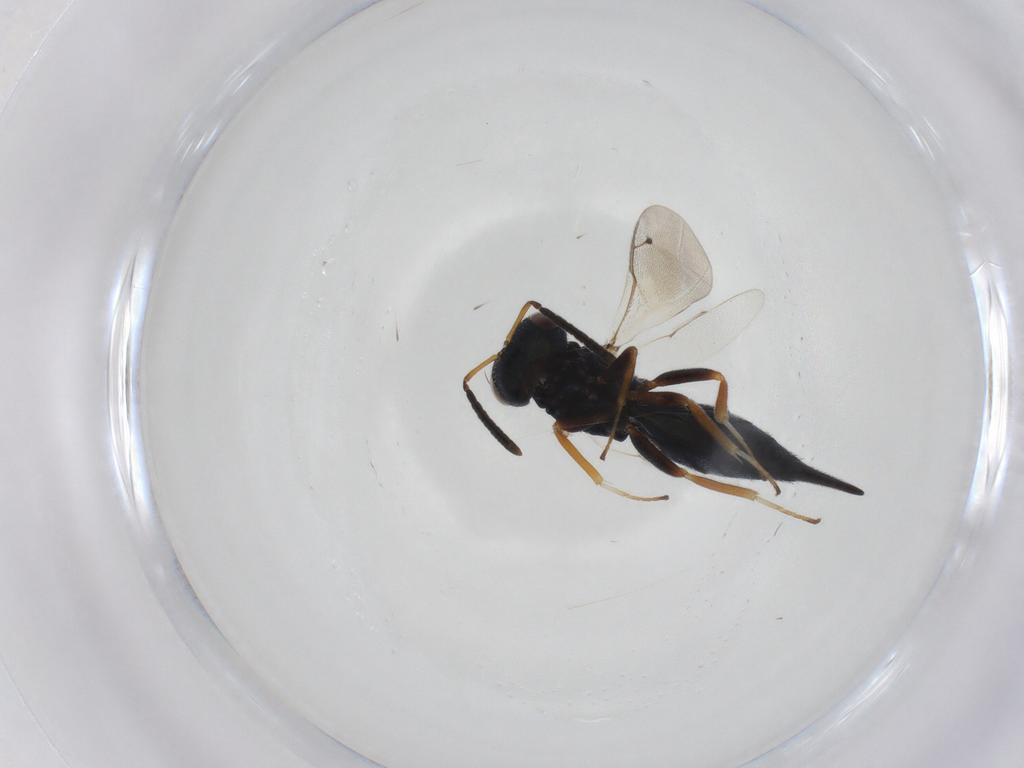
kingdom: Animalia
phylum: Arthropoda
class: Insecta
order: Hymenoptera
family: Pteromalidae
